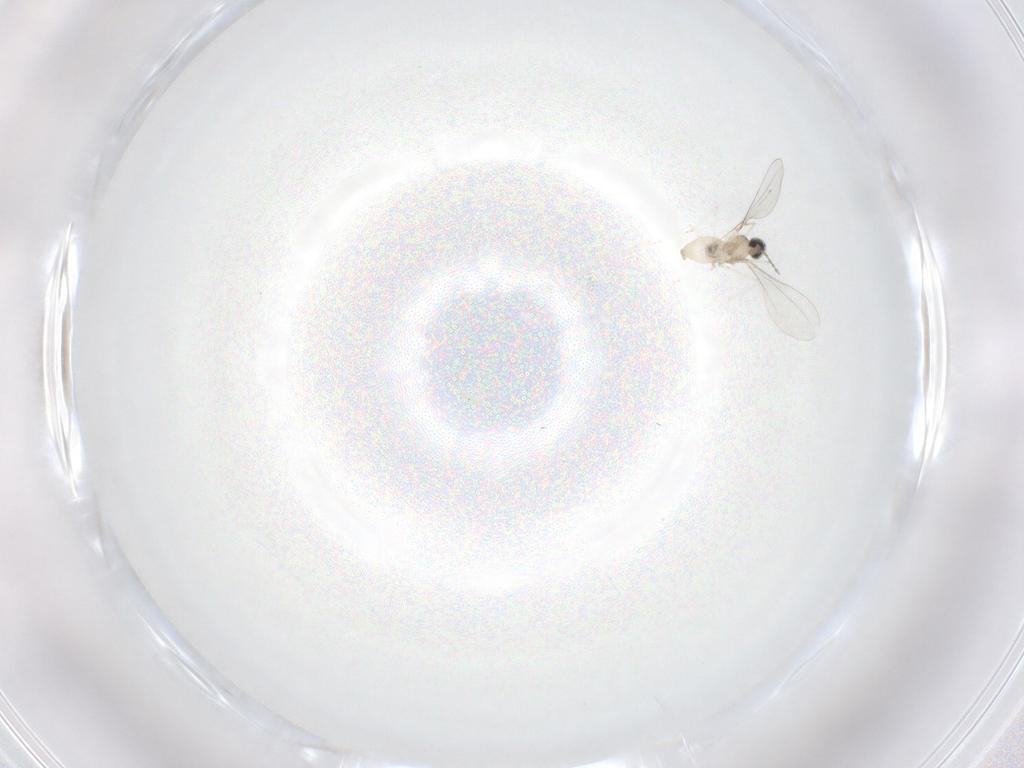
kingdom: Animalia
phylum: Arthropoda
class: Insecta
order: Diptera
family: Cecidomyiidae
